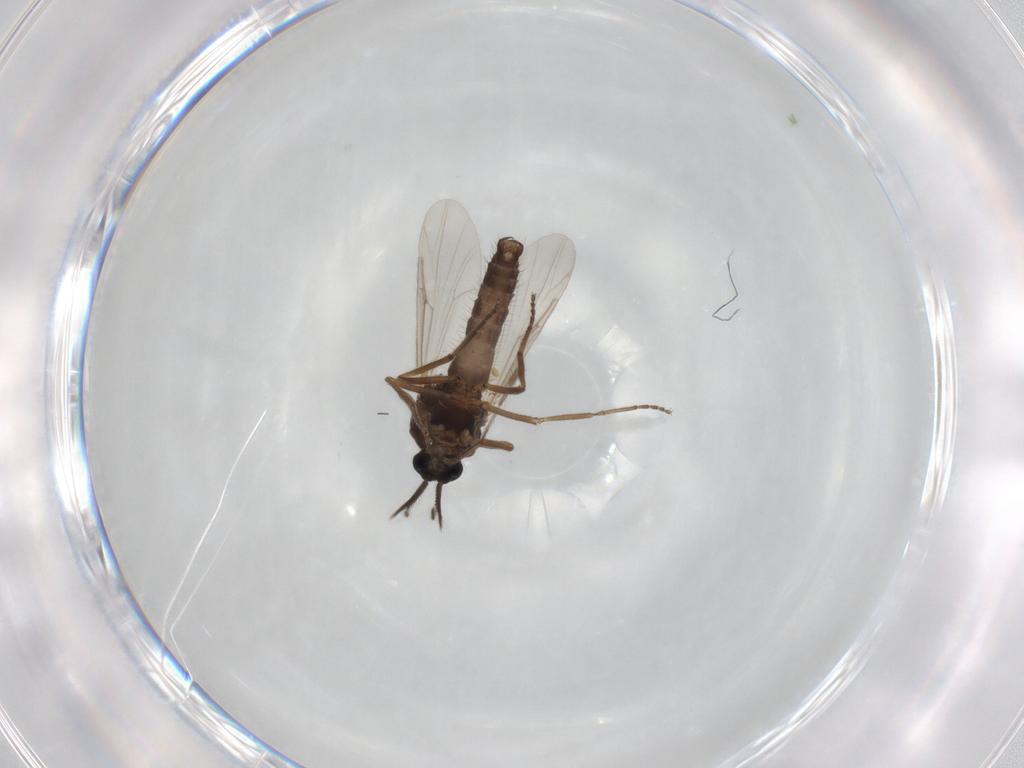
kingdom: Animalia
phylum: Arthropoda
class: Insecta
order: Diptera
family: Ceratopogonidae
